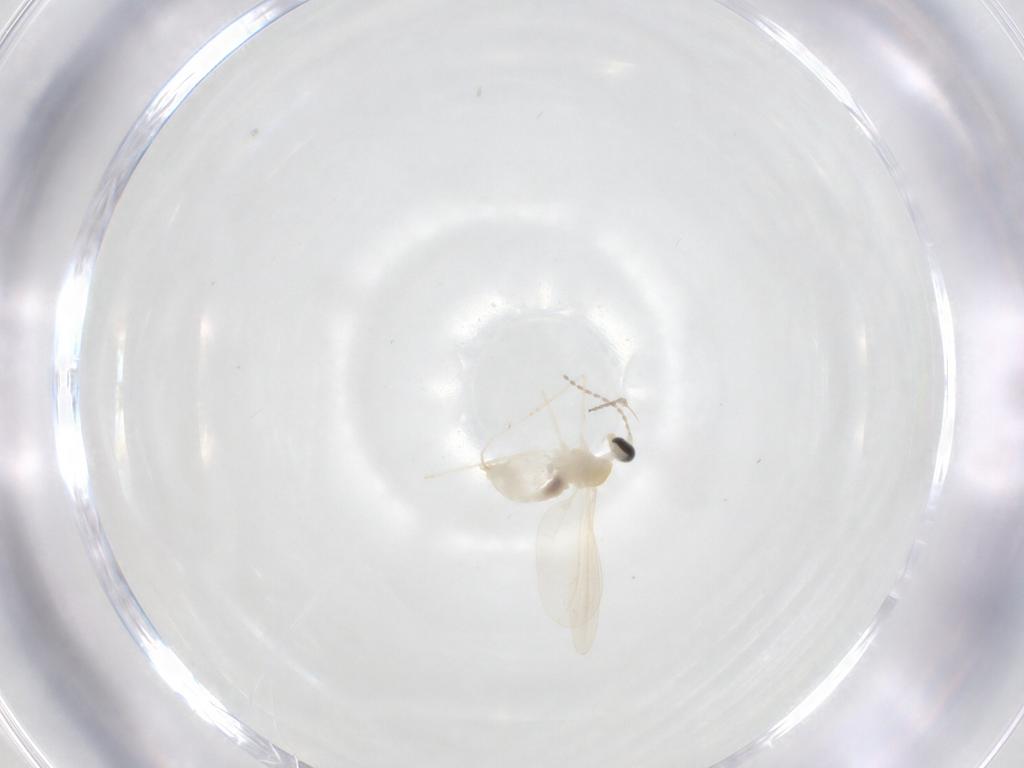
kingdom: Animalia
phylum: Arthropoda
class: Insecta
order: Diptera
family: Cecidomyiidae
